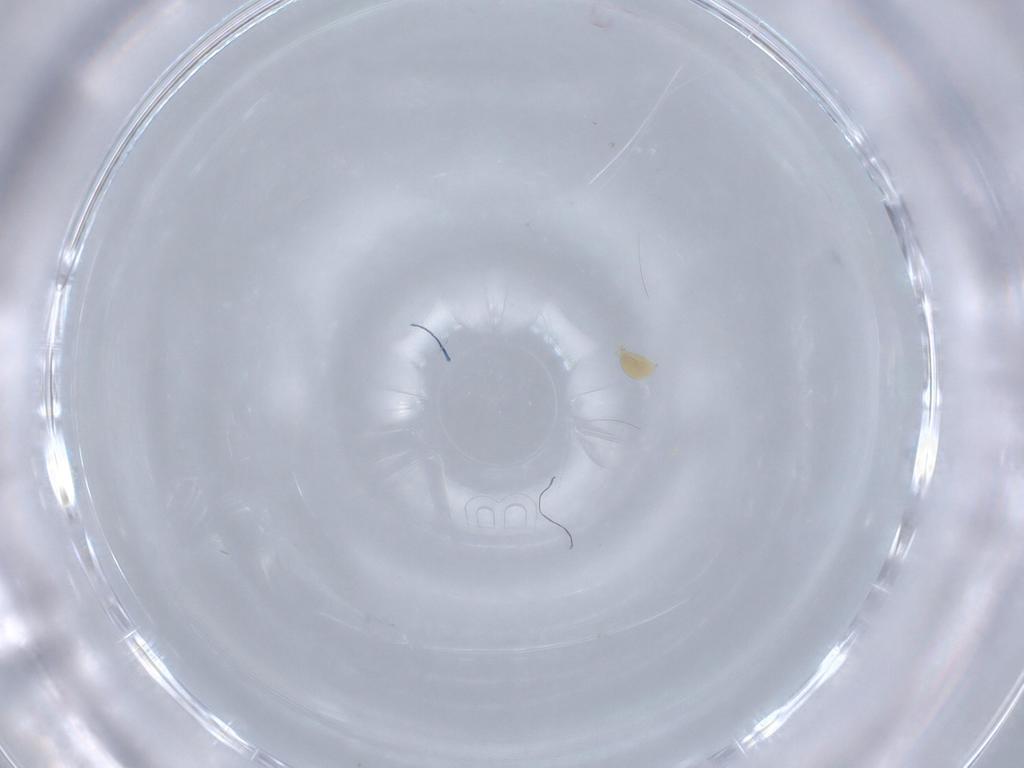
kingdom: Animalia
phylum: Arthropoda
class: Arachnida
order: Trombidiformes
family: Limnesiidae
